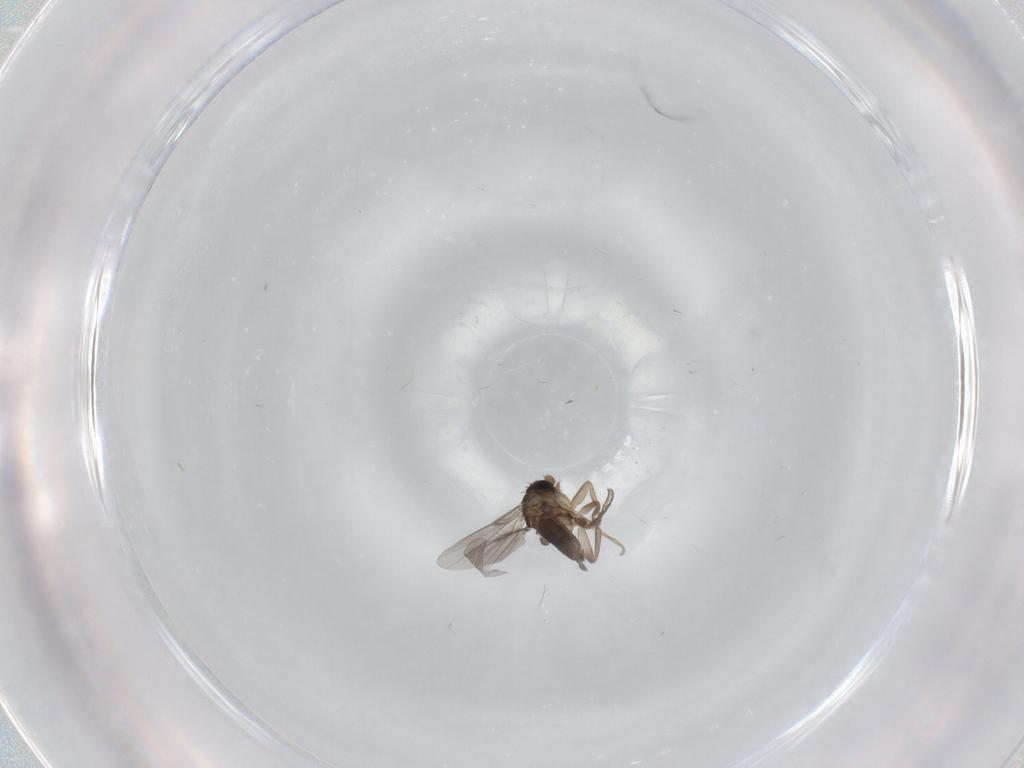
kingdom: Animalia
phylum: Arthropoda
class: Insecta
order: Diptera
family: Phoridae
